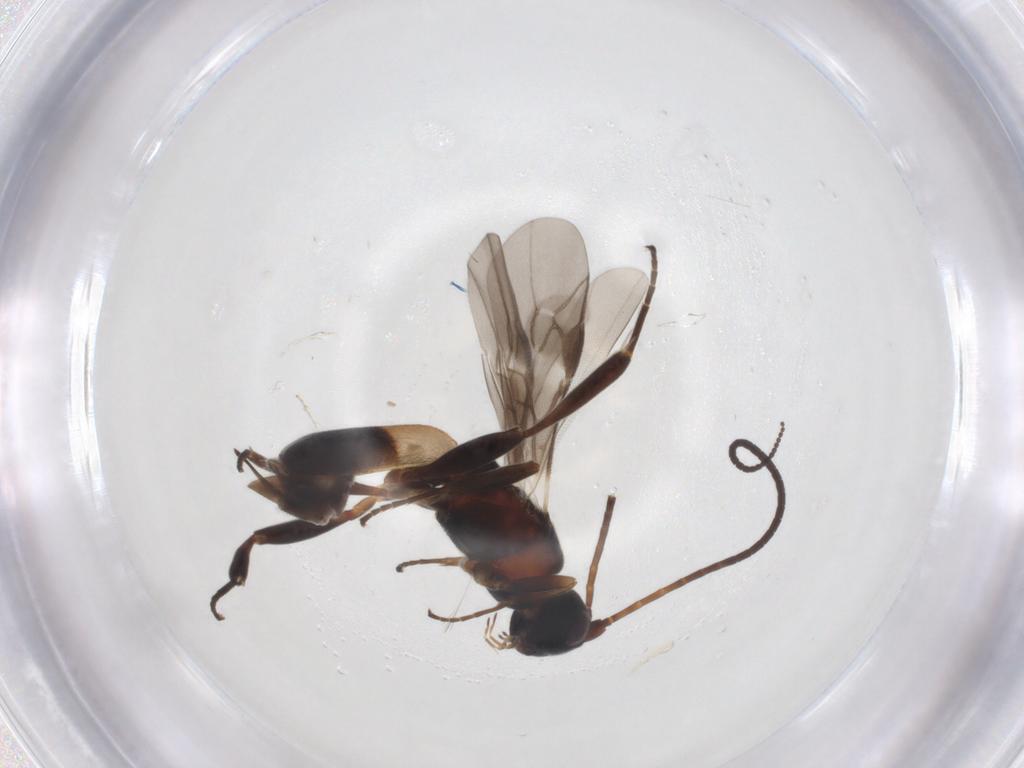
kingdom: Animalia
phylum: Arthropoda
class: Insecta
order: Hymenoptera
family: Braconidae
